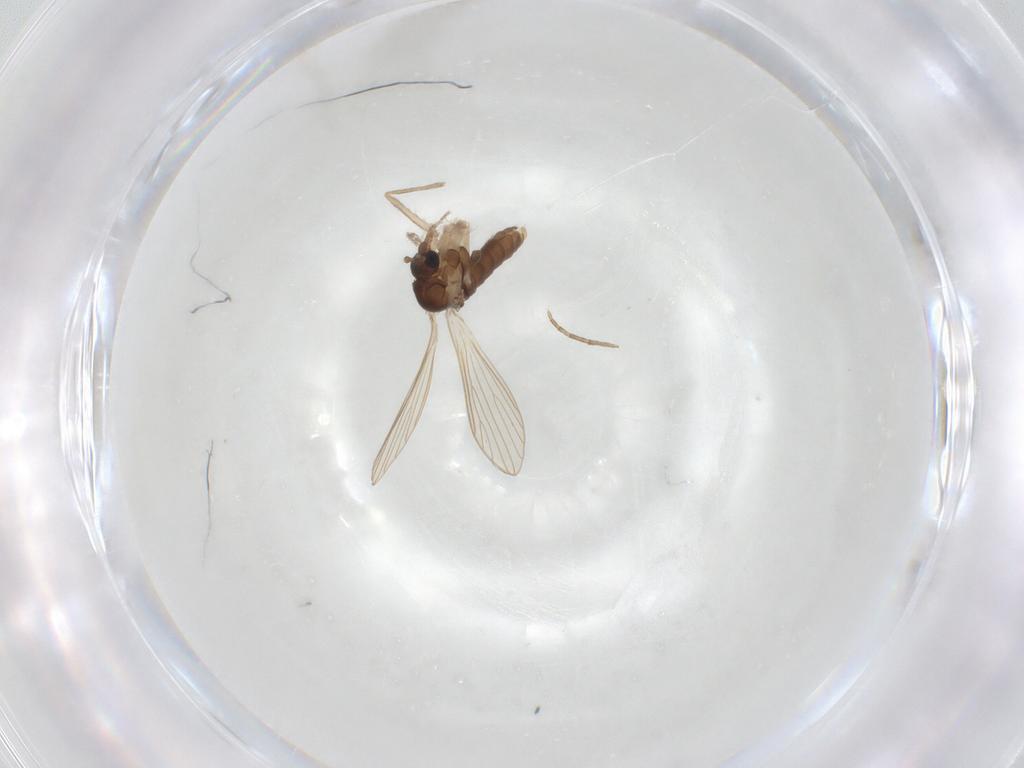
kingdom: Animalia
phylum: Arthropoda
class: Insecta
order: Diptera
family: Psychodidae
